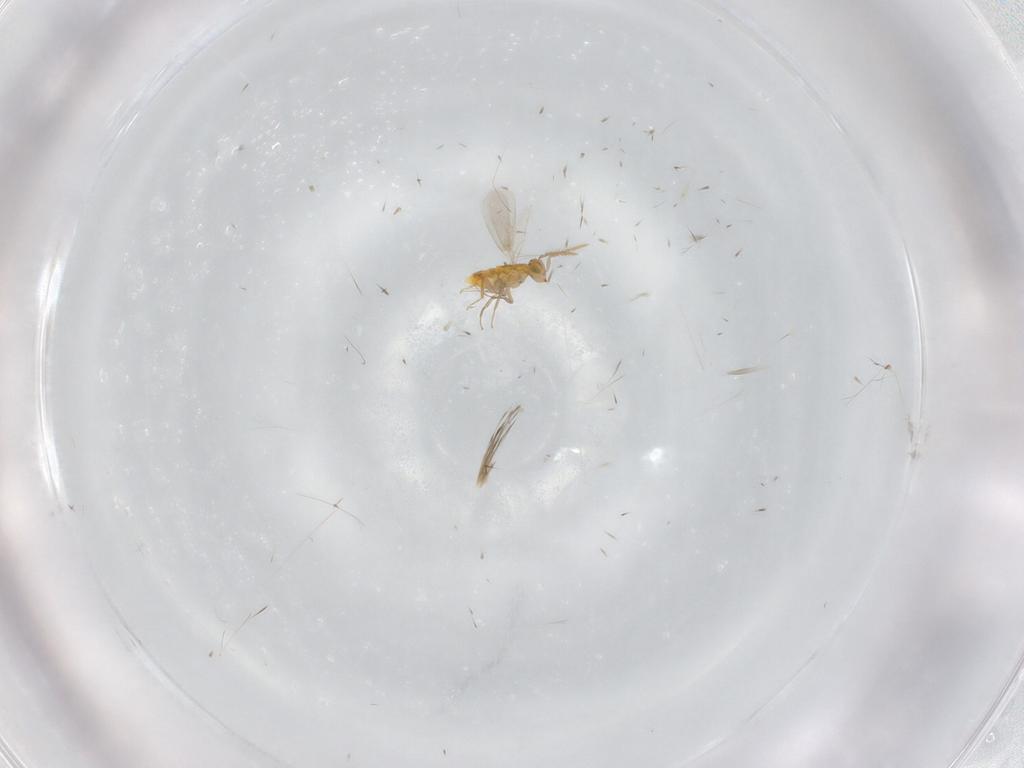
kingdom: Animalia
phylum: Arthropoda
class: Insecta
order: Hymenoptera
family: Aphelinidae
